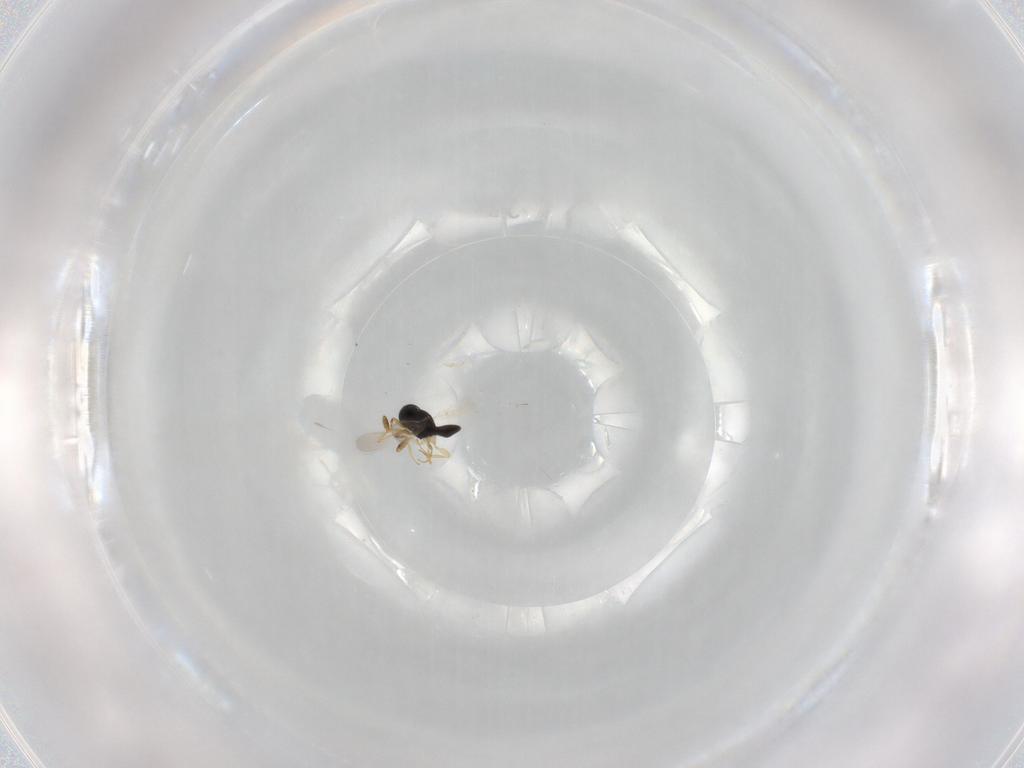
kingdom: Animalia
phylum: Arthropoda
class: Insecta
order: Hymenoptera
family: Scelionidae
